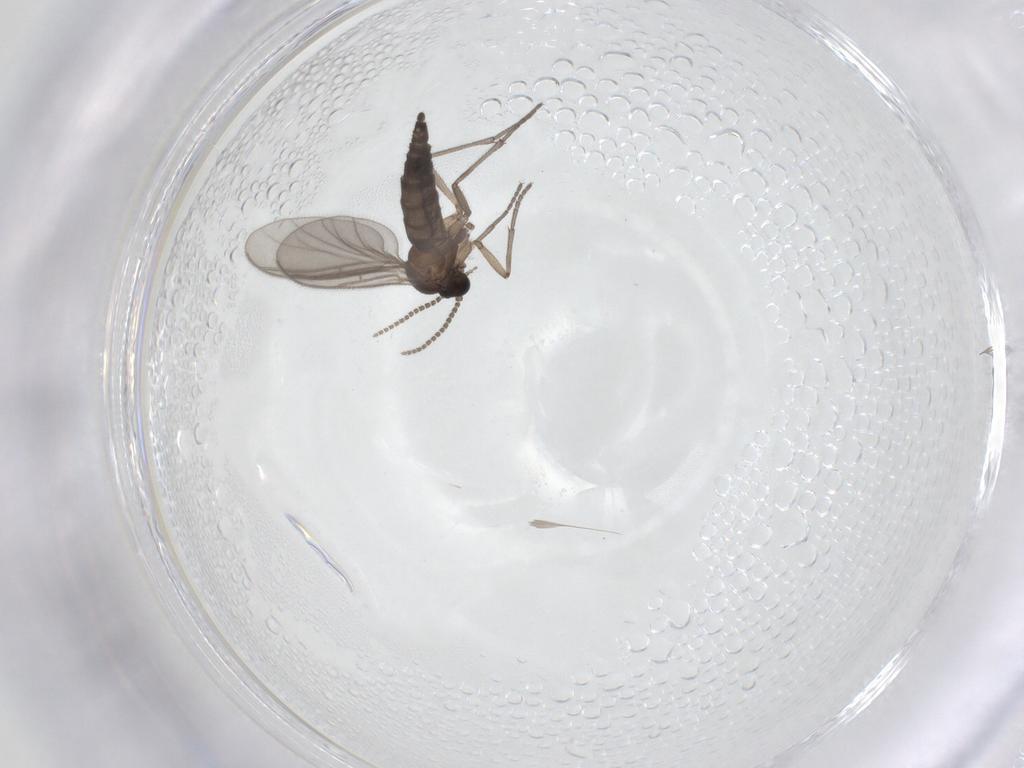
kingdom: Animalia
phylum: Arthropoda
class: Insecta
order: Diptera
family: Sciaridae
